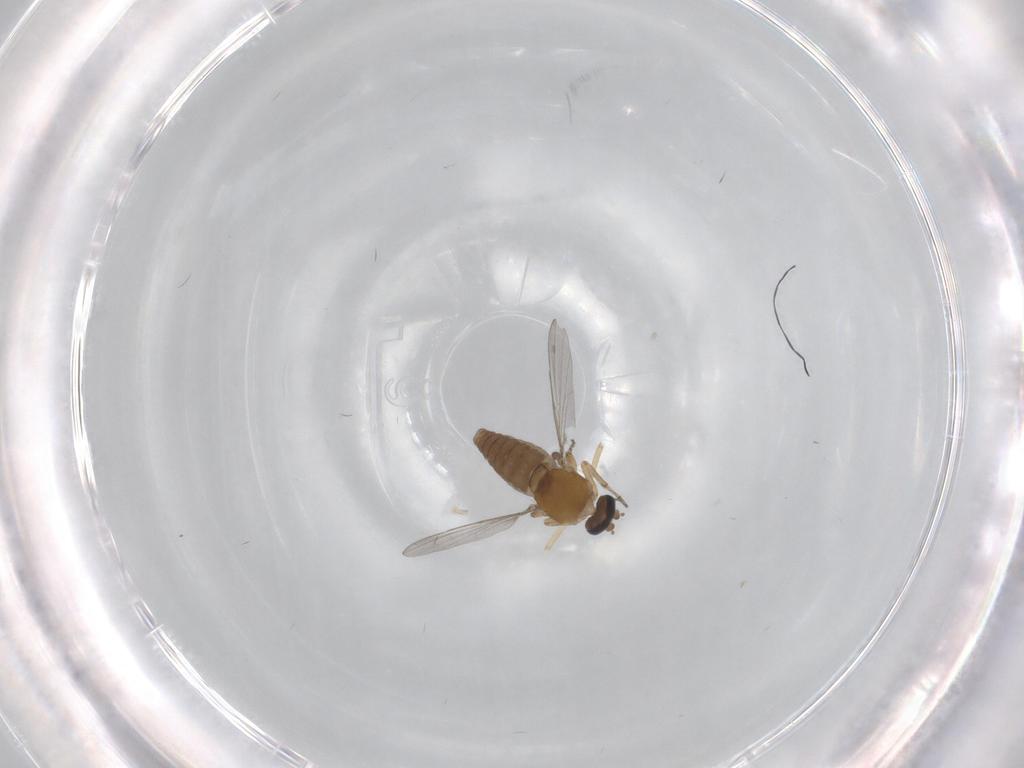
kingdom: Animalia
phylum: Arthropoda
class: Insecta
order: Diptera
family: Ceratopogonidae
